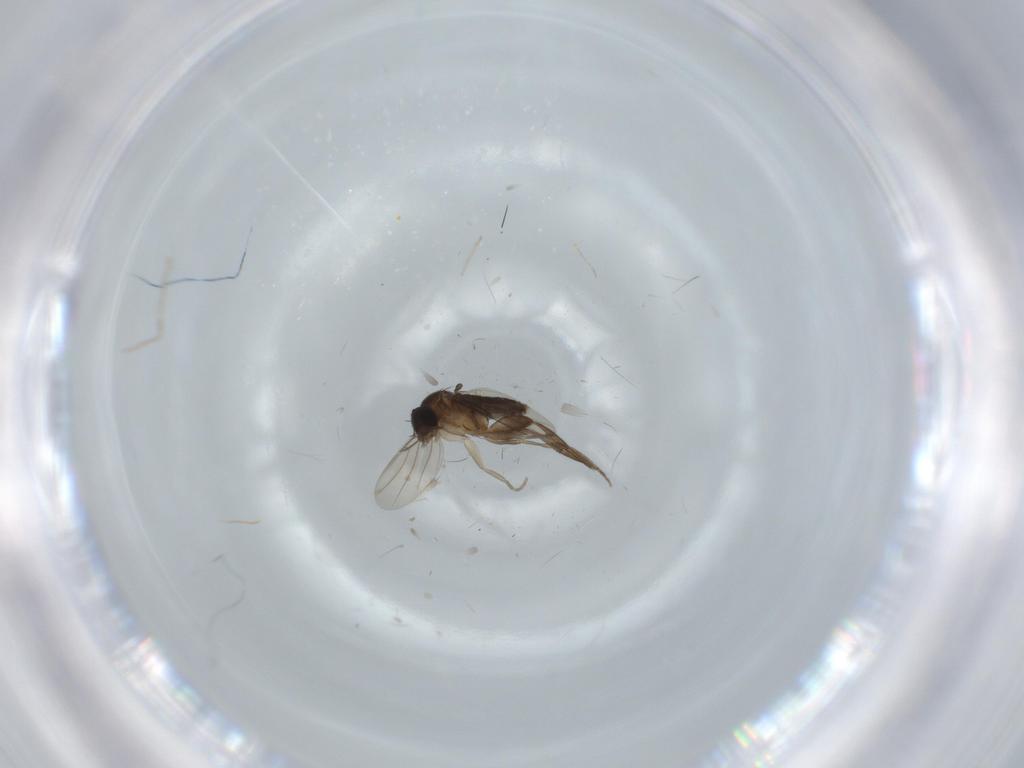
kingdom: Animalia
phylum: Arthropoda
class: Insecta
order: Diptera
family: Phoridae
